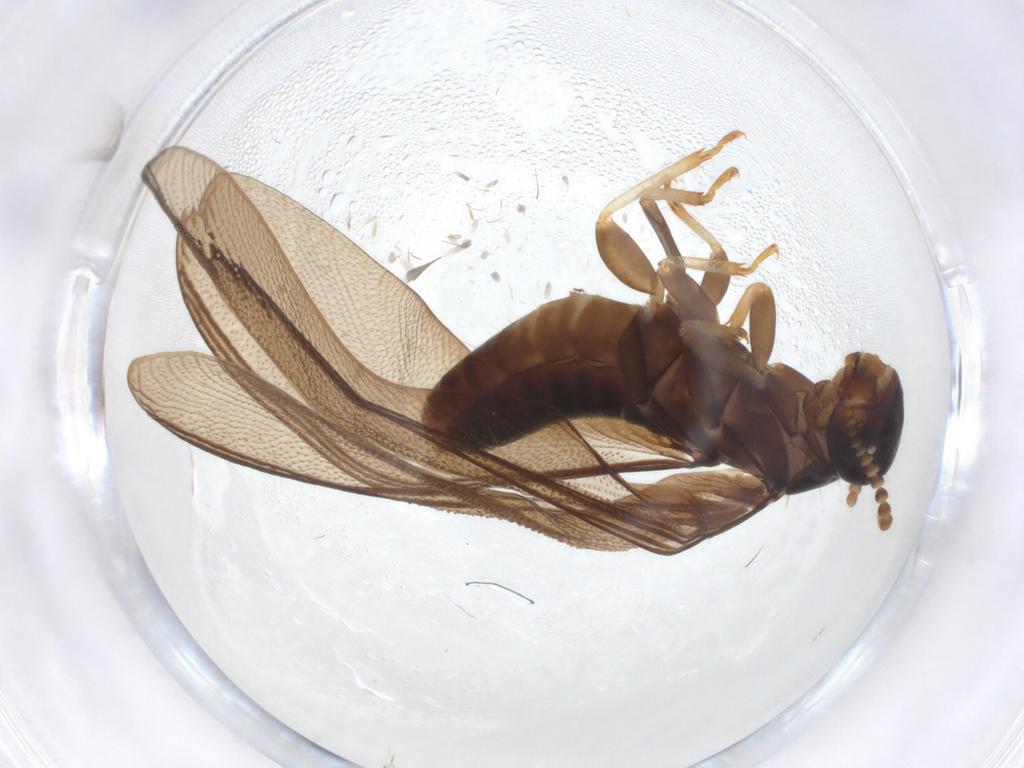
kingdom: Animalia
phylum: Arthropoda
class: Insecta
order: Blattodea
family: Kalotermitidae
